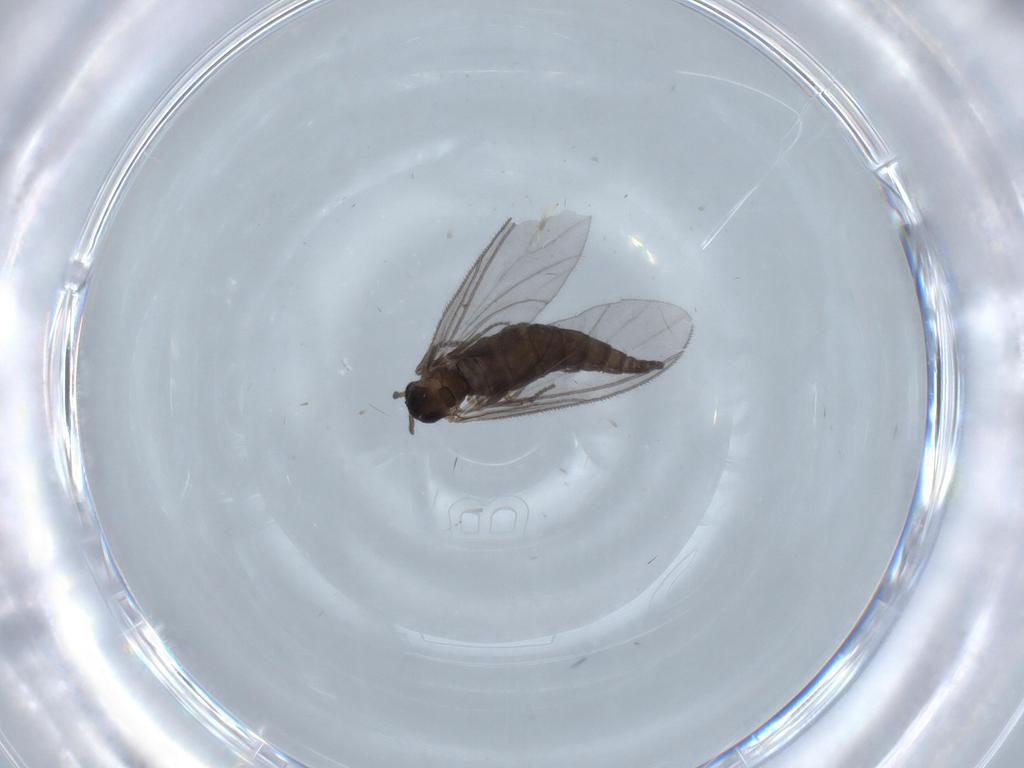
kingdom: Animalia
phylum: Arthropoda
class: Insecta
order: Diptera
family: Sciaridae
